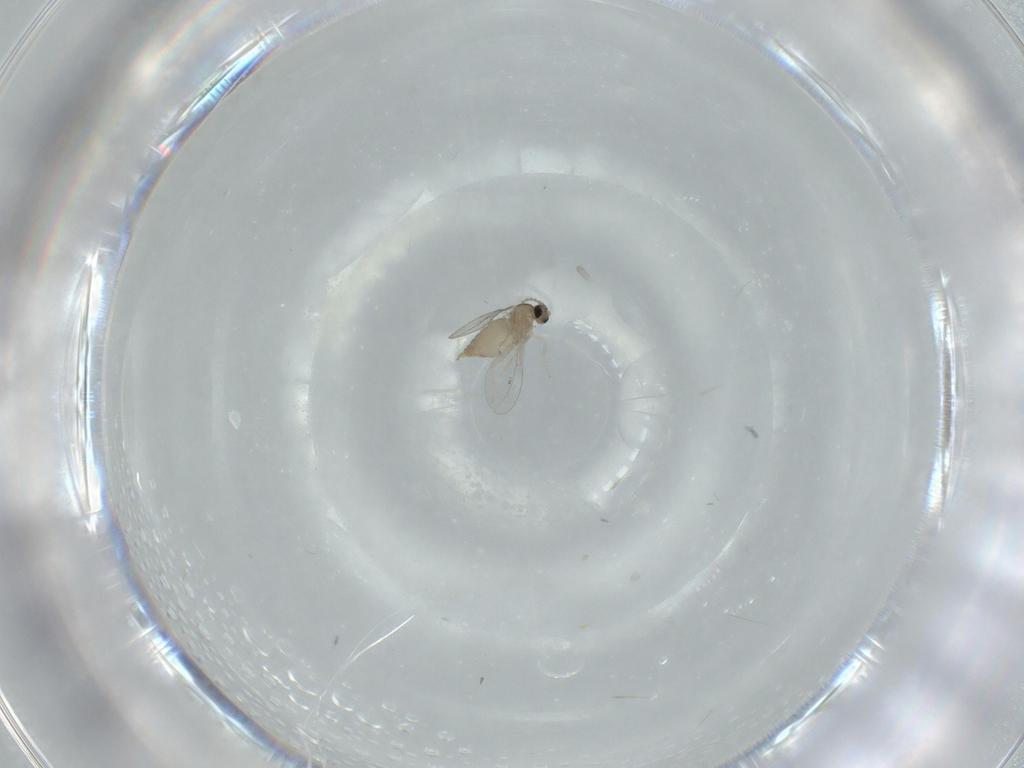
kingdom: Animalia
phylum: Arthropoda
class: Insecta
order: Diptera
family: Cecidomyiidae
